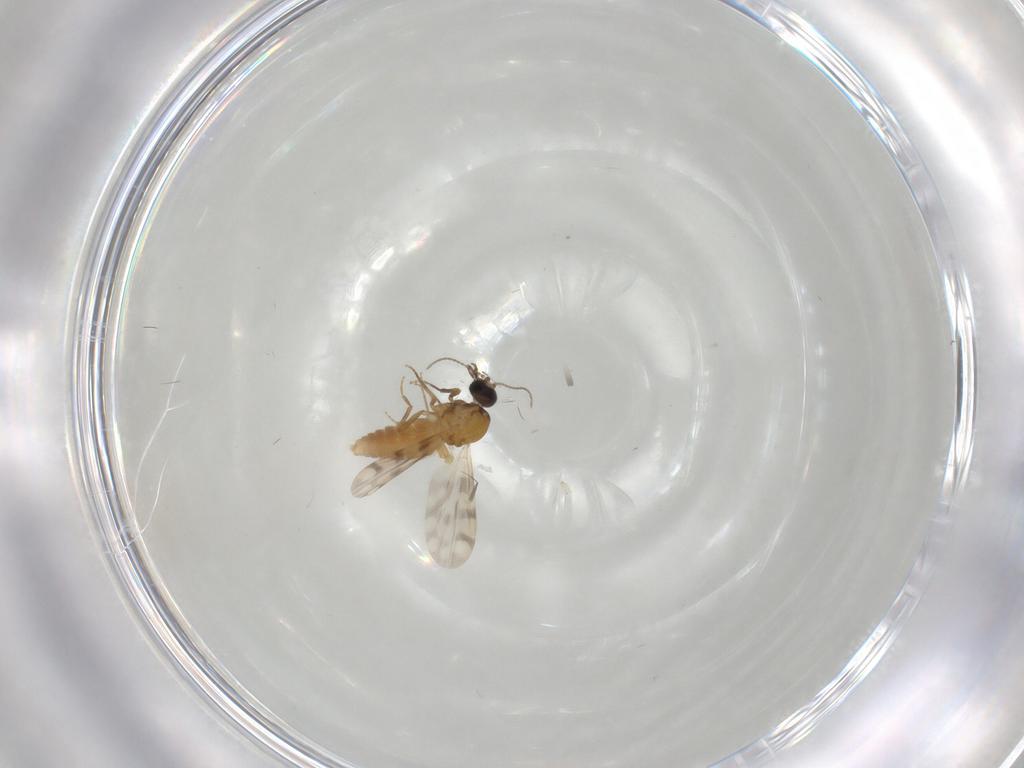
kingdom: Animalia
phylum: Arthropoda
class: Insecta
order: Diptera
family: Ceratopogonidae
